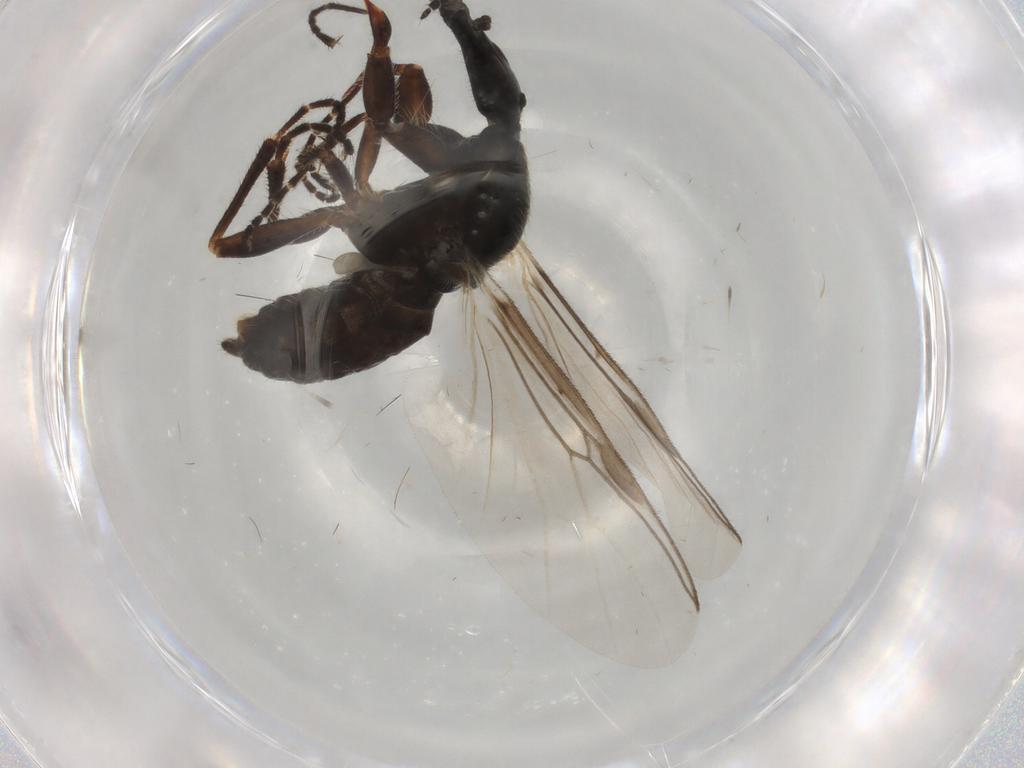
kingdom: Animalia
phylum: Arthropoda
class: Insecta
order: Diptera
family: Bibionidae
